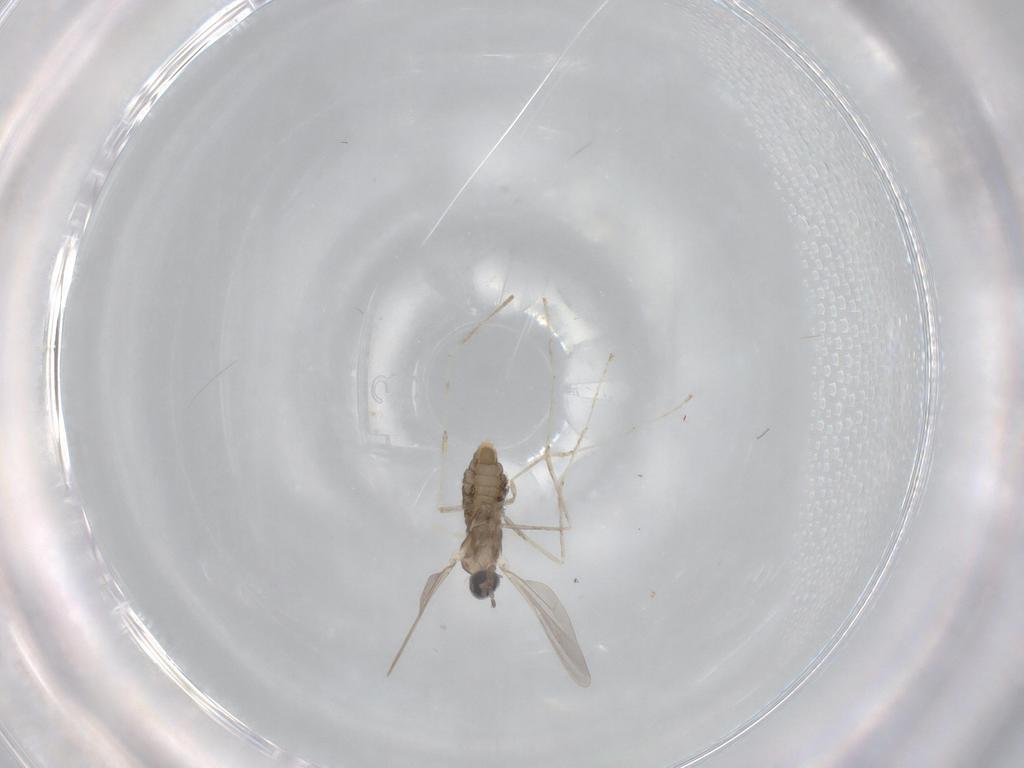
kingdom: Animalia
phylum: Arthropoda
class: Insecta
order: Diptera
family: Cecidomyiidae
